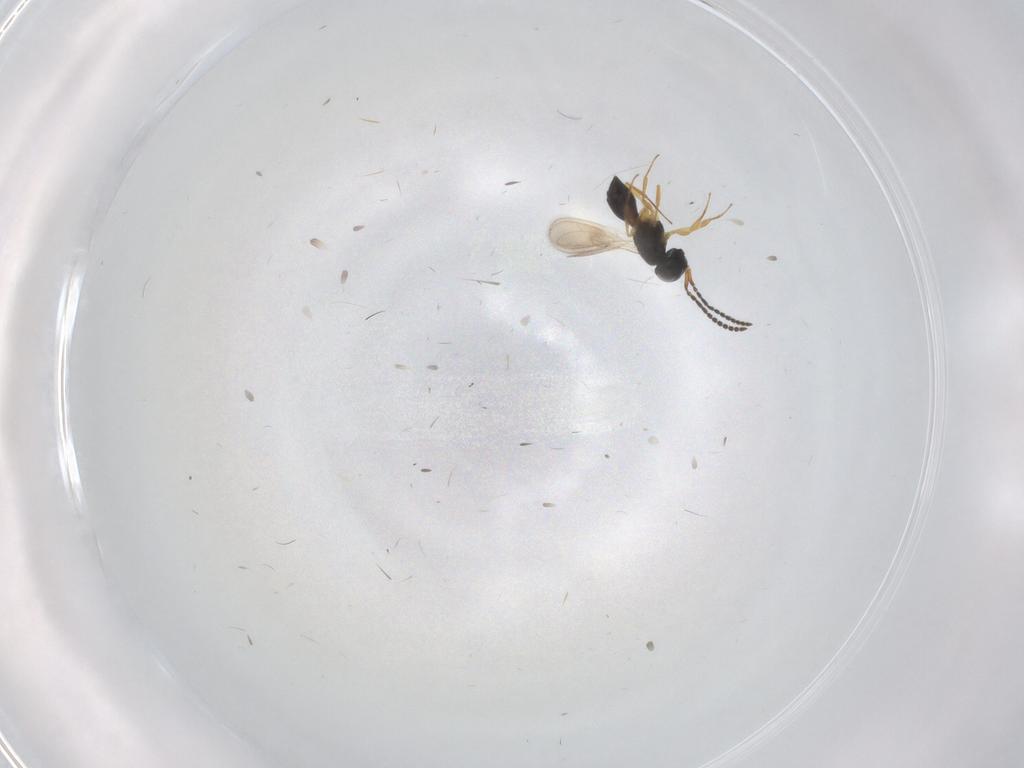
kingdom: Animalia
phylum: Arthropoda
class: Insecta
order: Hymenoptera
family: Scelionidae
